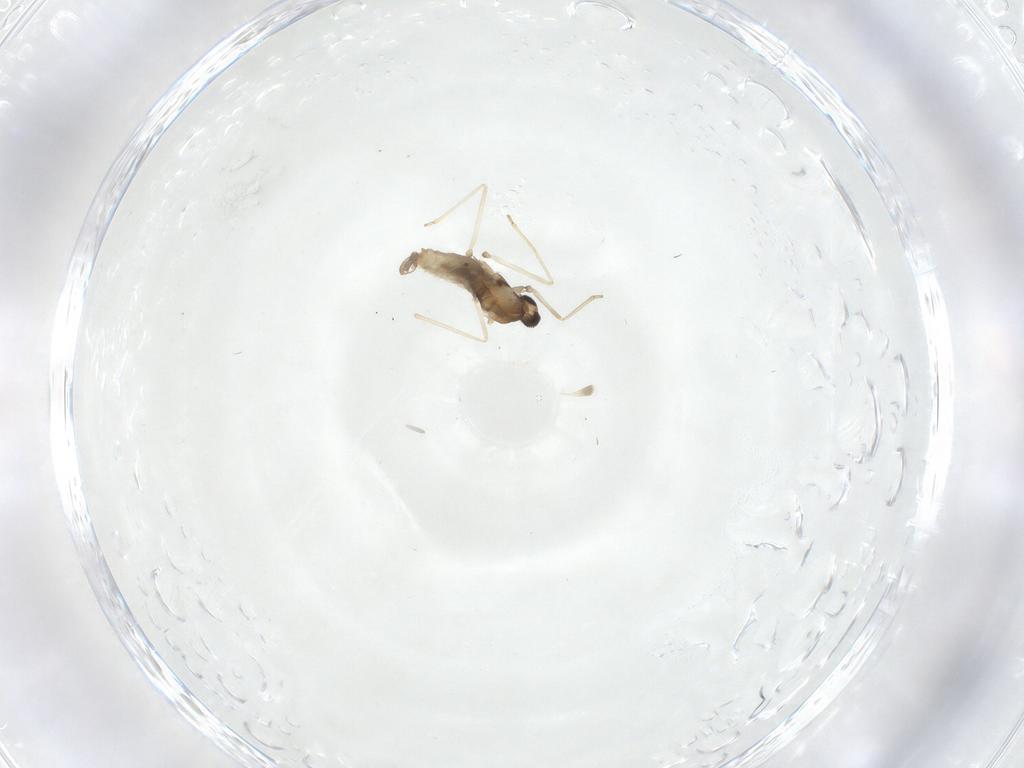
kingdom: Animalia
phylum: Arthropoda
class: Insecta
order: Diptera
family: Cecidomyiidae
